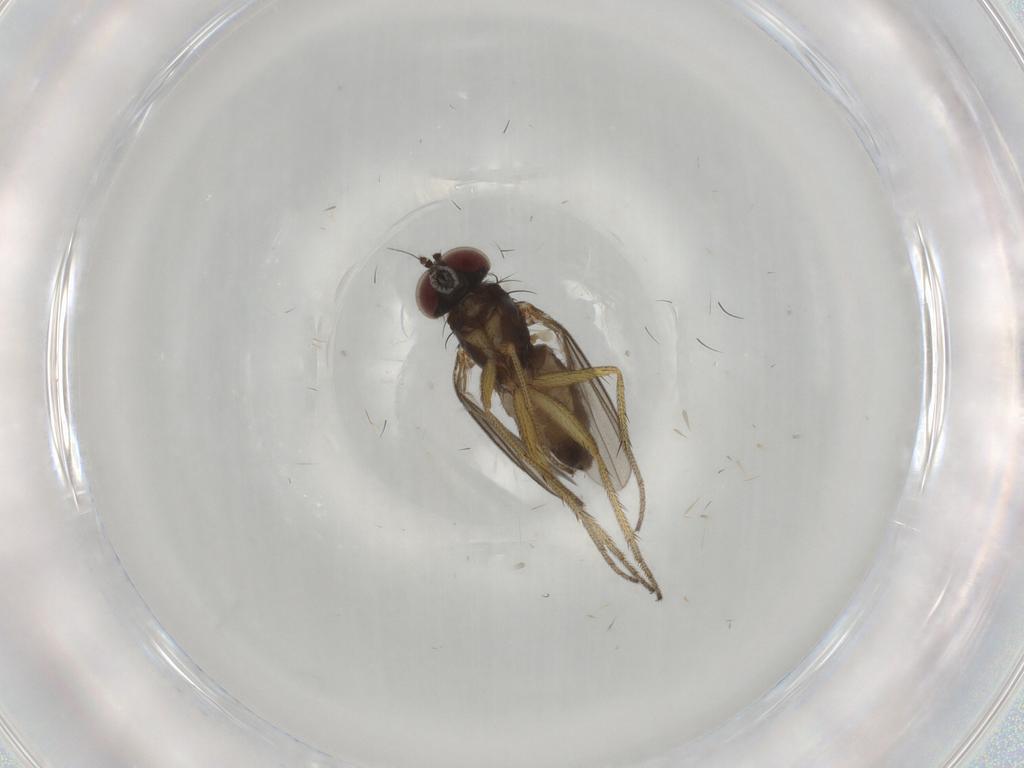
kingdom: Animalia
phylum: Arthropoda
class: Insecta
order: Diptera
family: Dolichopodidae
